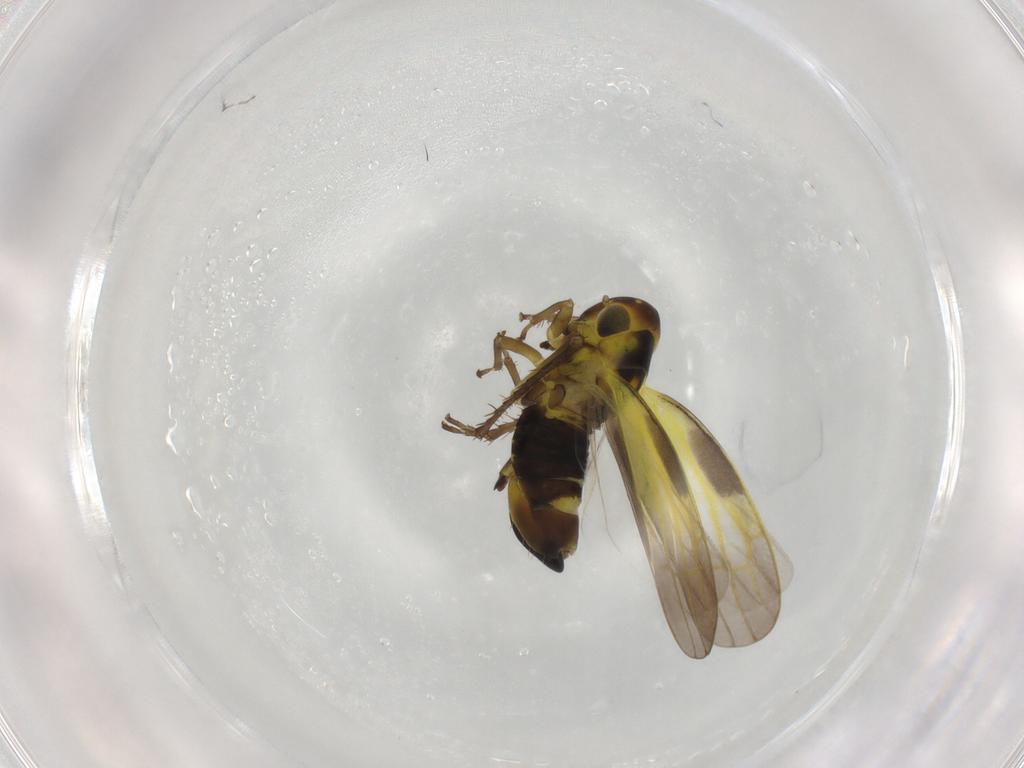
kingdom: Animalia
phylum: Arthropoda
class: Insecta
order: Hemiptera
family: Cicadellidae
